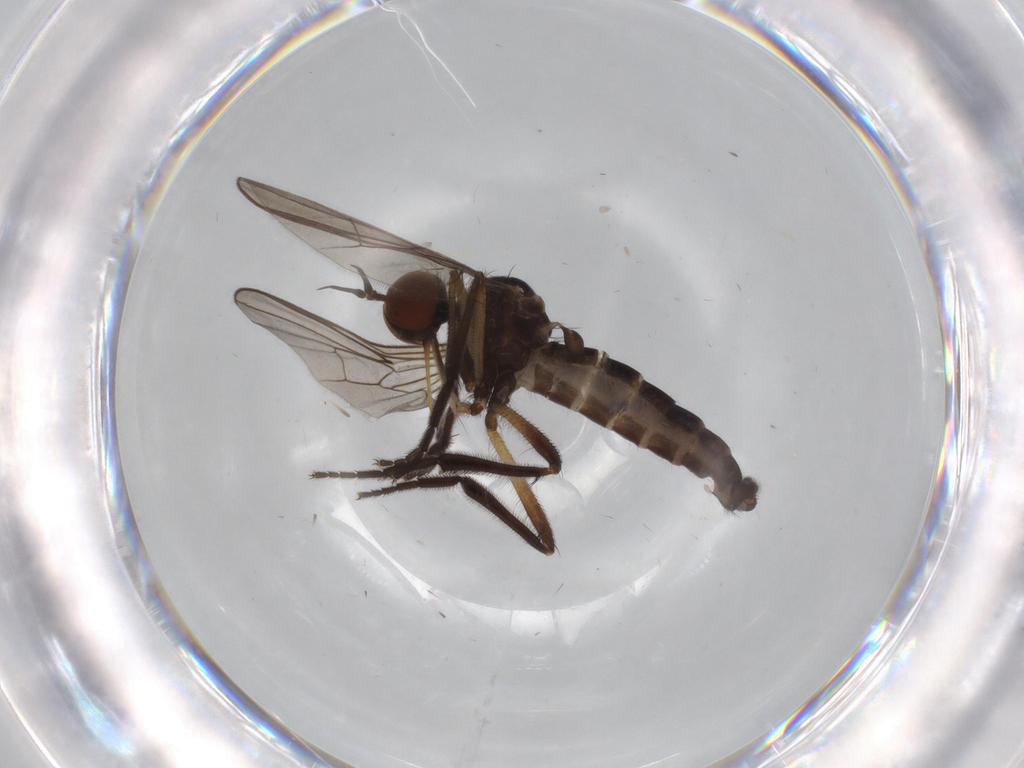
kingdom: Animalia
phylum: Arthropoda
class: Insecta
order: Diptera
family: Empididae
